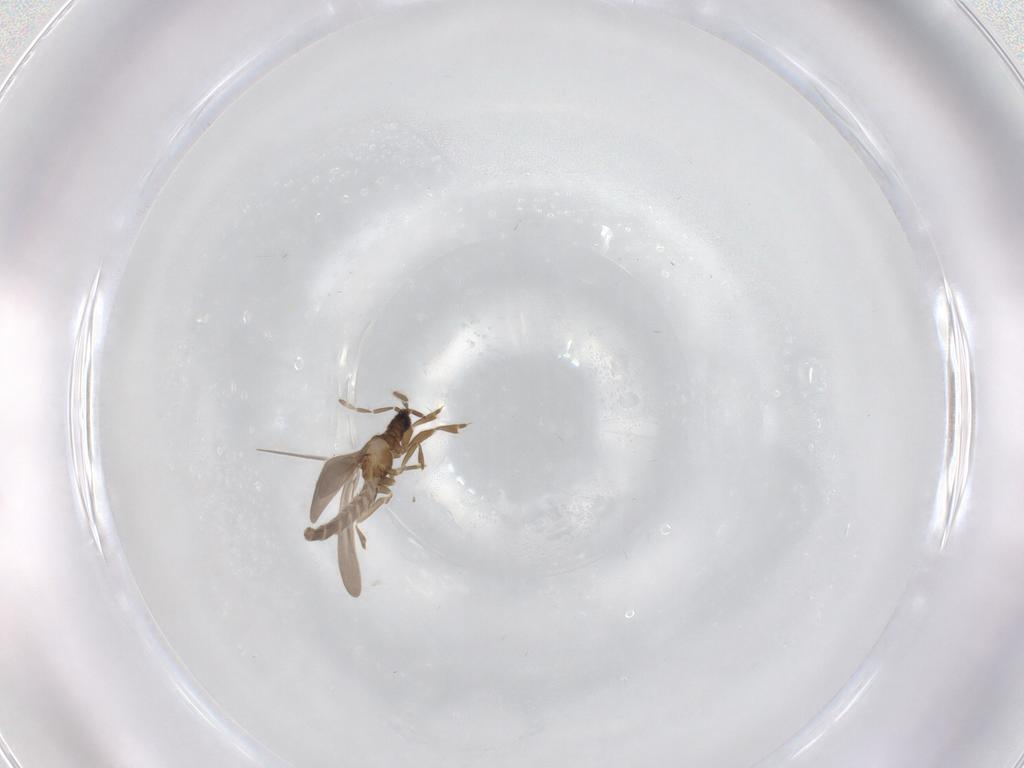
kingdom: Animalia
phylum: Arthropoda
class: Insecta
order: Hemiptera
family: Enicocephalidae
